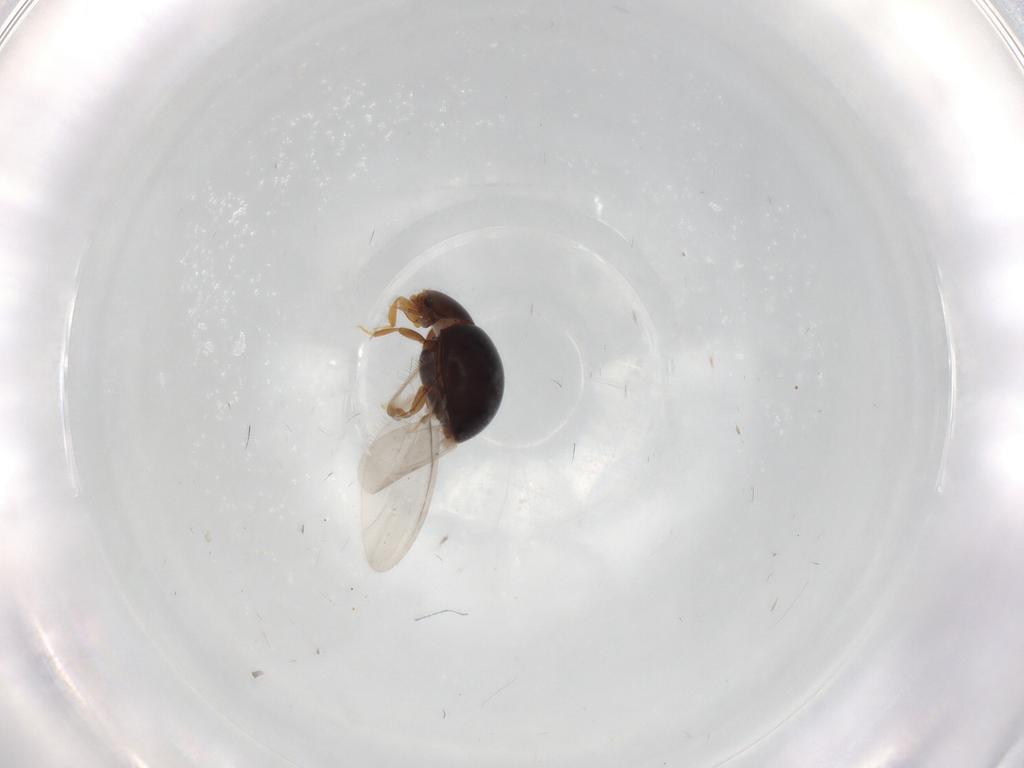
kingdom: Animalia
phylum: Arthropoda
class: Insecta
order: Coleoptera
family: Corylophidae
